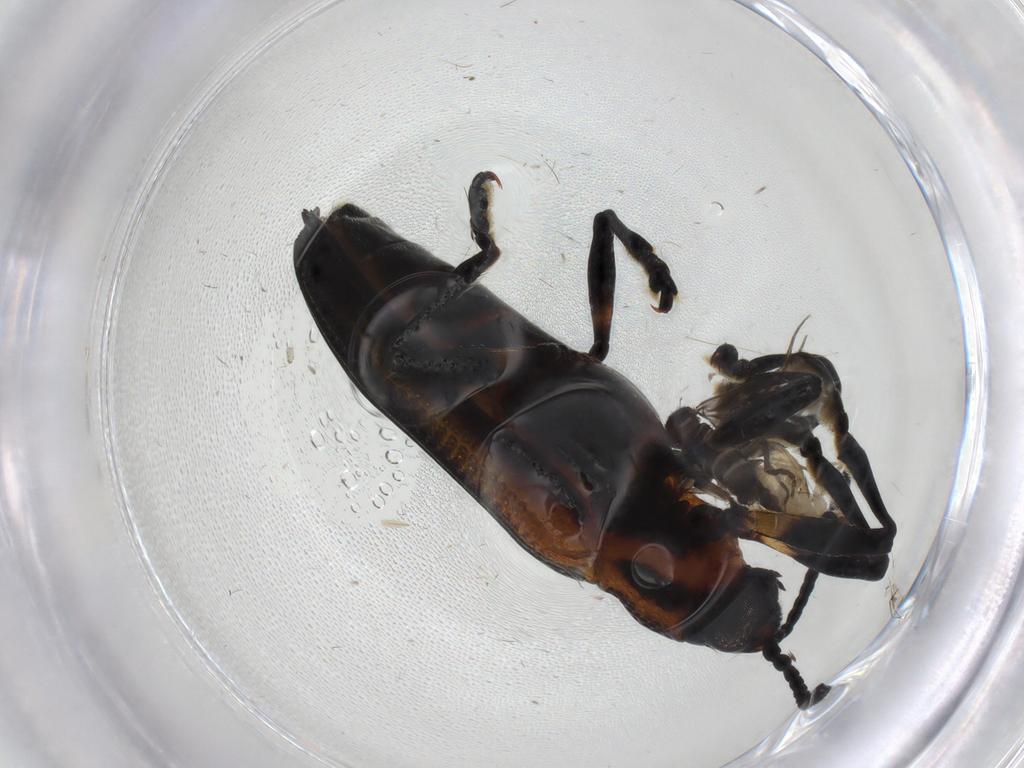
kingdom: Animalia
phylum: Arthropoda
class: Insecta
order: Diptera
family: Phoridae
